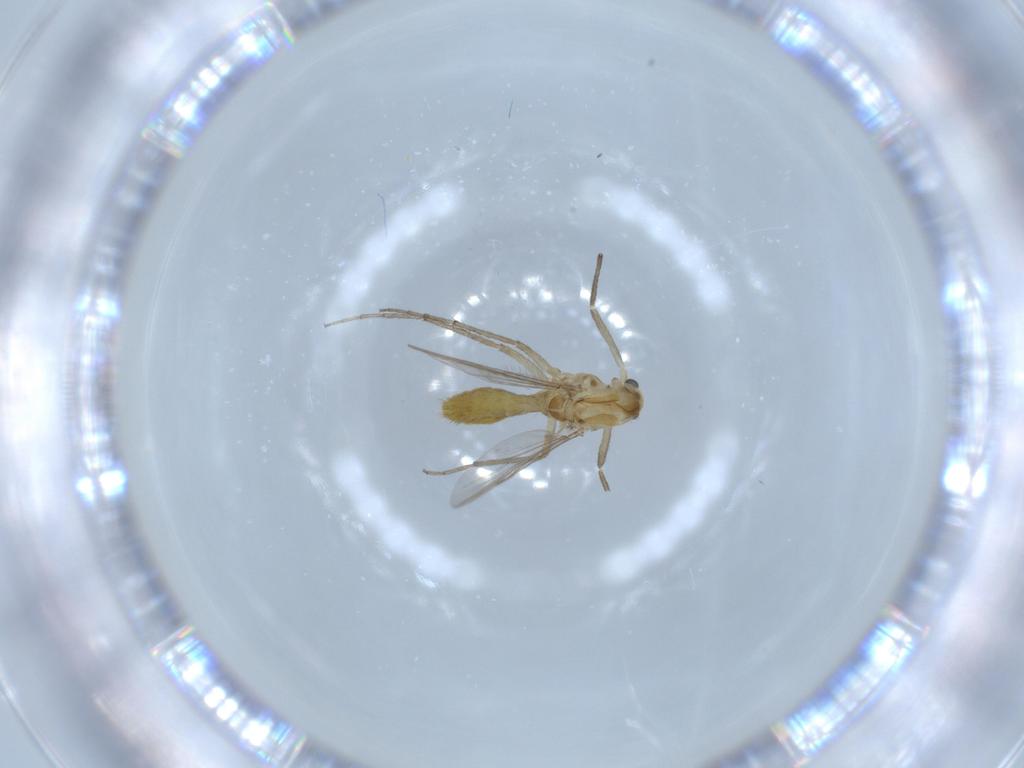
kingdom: Animalia
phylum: Arthropoda
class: Insecta
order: Diptera
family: Chironomidae
